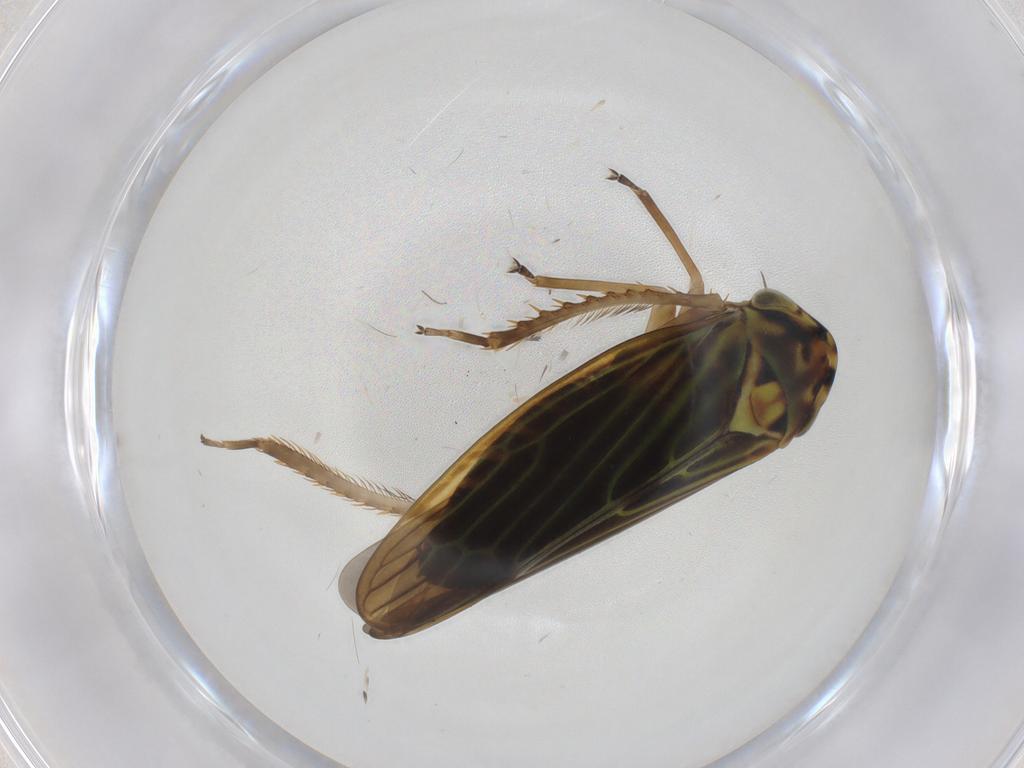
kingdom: Animalia
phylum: Arthropoda
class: Insecta
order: Hemiptera
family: Cicadellidae
